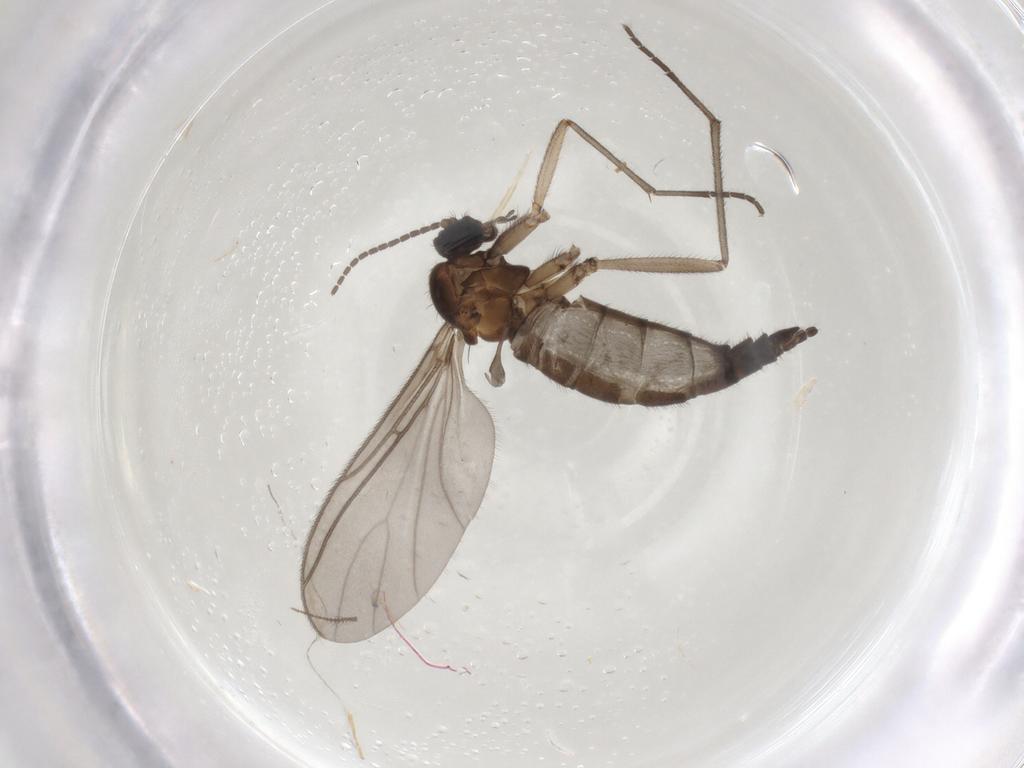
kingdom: Animalia
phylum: Arthropoda
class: Insecta
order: Diptera
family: Sciaridae
